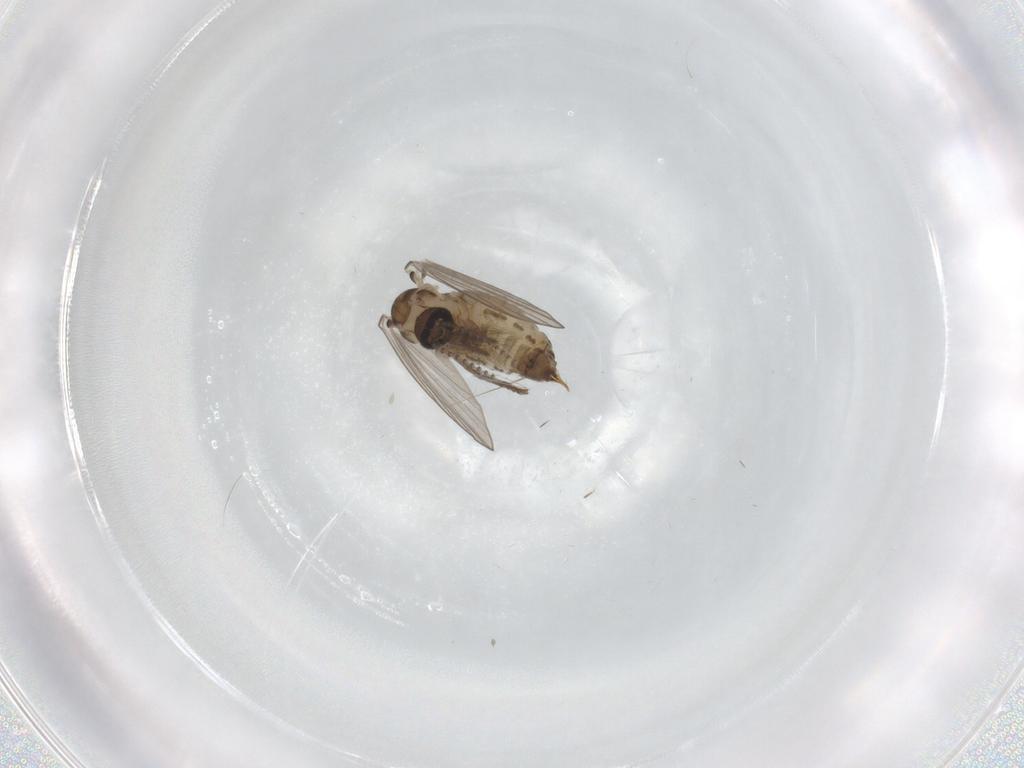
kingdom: Animalia
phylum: Arthropoda
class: Insecta
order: Diptera
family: Psychodidae
